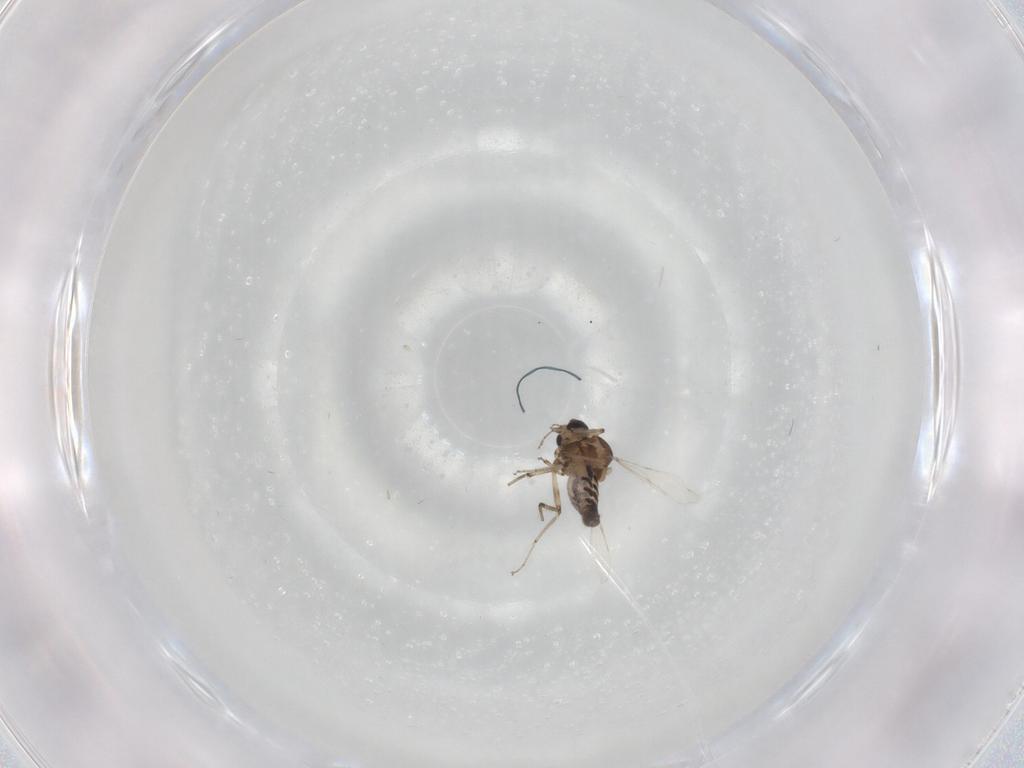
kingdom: Animalia
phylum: Arthropoda
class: Insecta
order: Diptera
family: Ceratopogonidae
